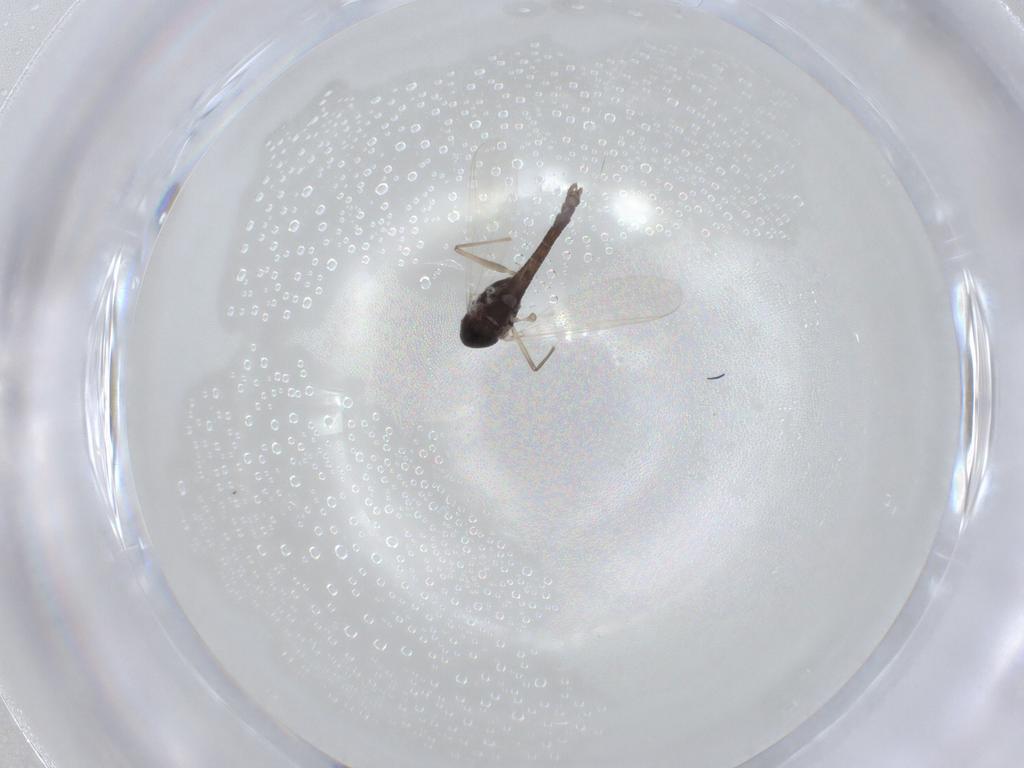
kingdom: Animalia
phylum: Arthropoda
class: Insecta
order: Diptera
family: Chironomidae
